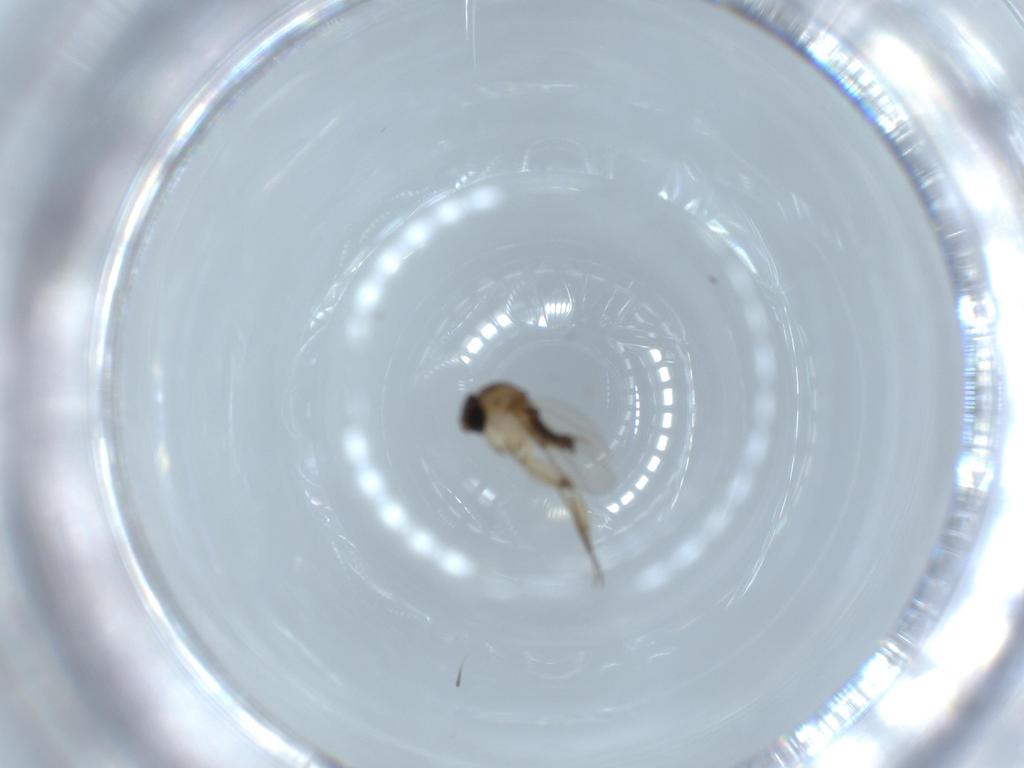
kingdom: Animalia
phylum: Arthropoda
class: Insecta
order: Diptera
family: Phoridae
